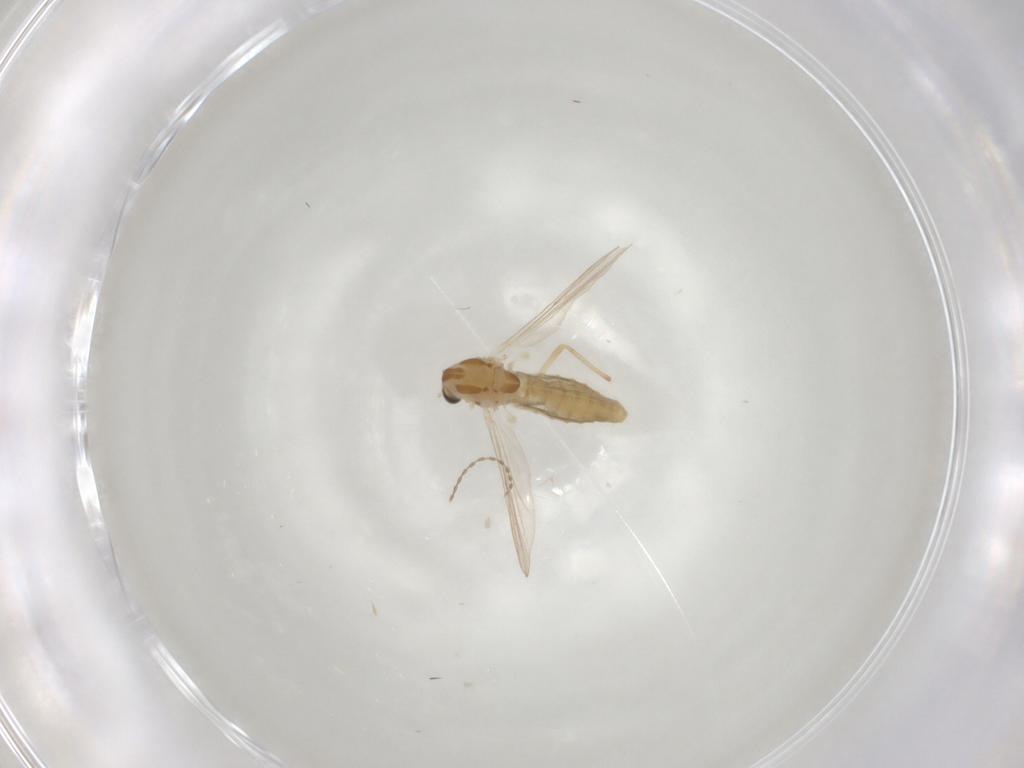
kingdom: Animalia
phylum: Arthropoda
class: Insecta
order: Diptera
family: Chironomidae
